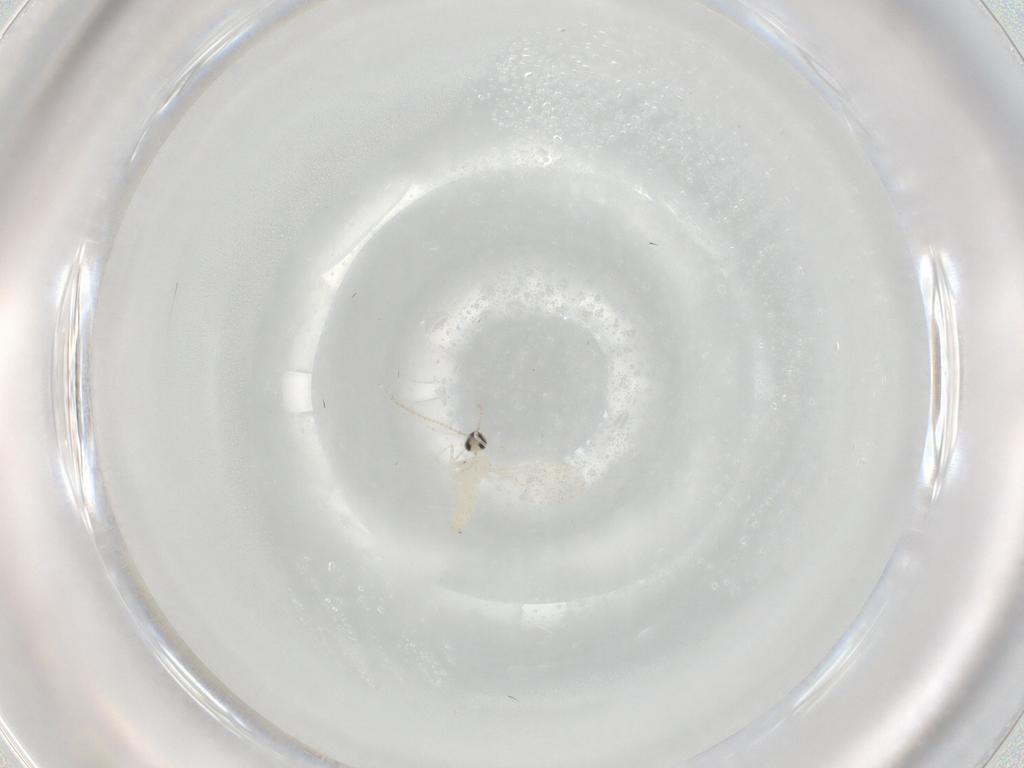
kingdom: Animalia
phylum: Arthropoda
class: Insecta
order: Diptera
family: Cecidomyiidae
